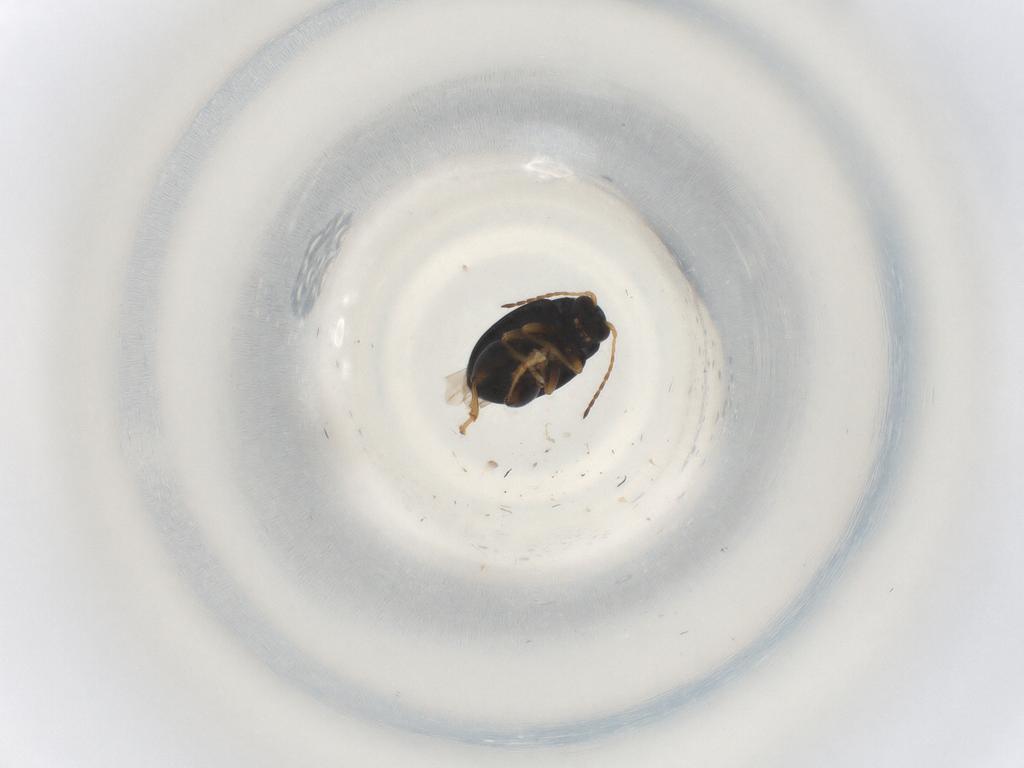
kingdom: Animalia
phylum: Arthropoda
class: Insecta
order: Coleoptera
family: Chrysomelidae
